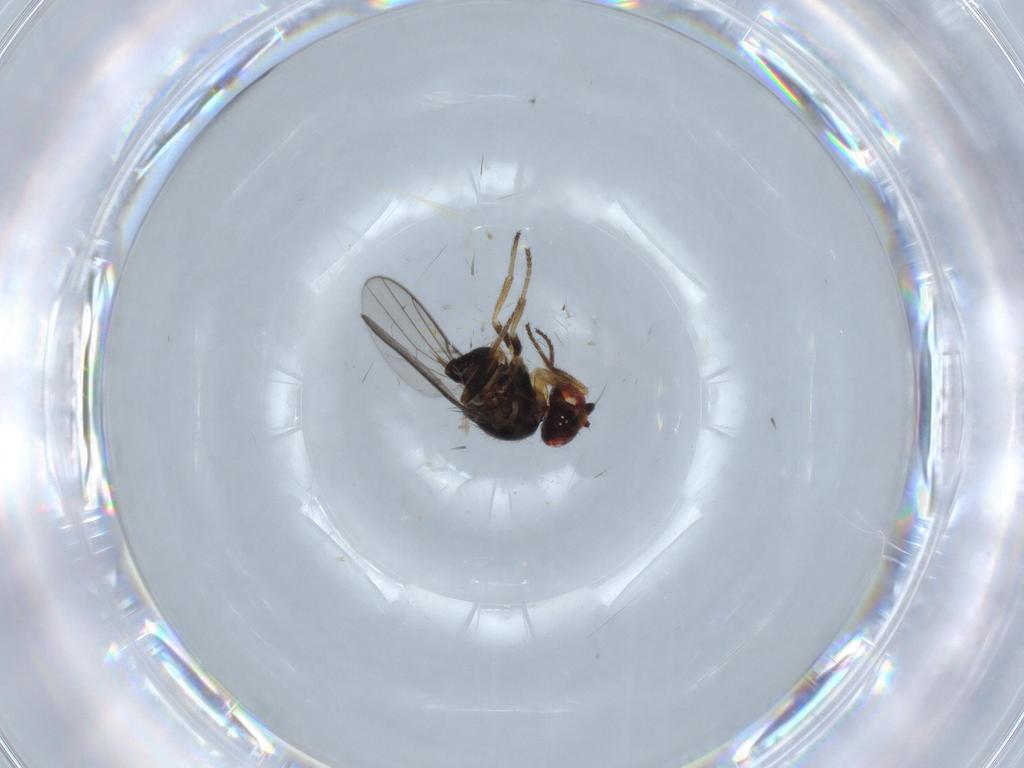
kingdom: Animalia
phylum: Arthropoda
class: Insecta
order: Diptera
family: Chloropidae
